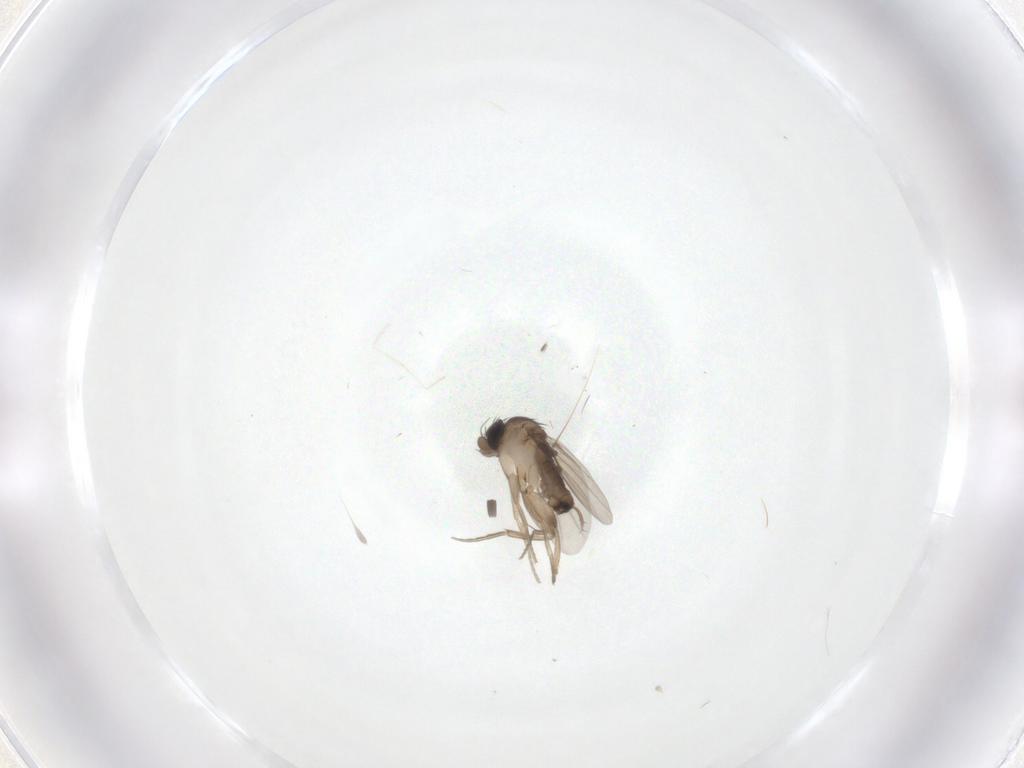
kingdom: Animalia
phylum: Arthropoda
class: Insecta
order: Diptera
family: Phoridae
